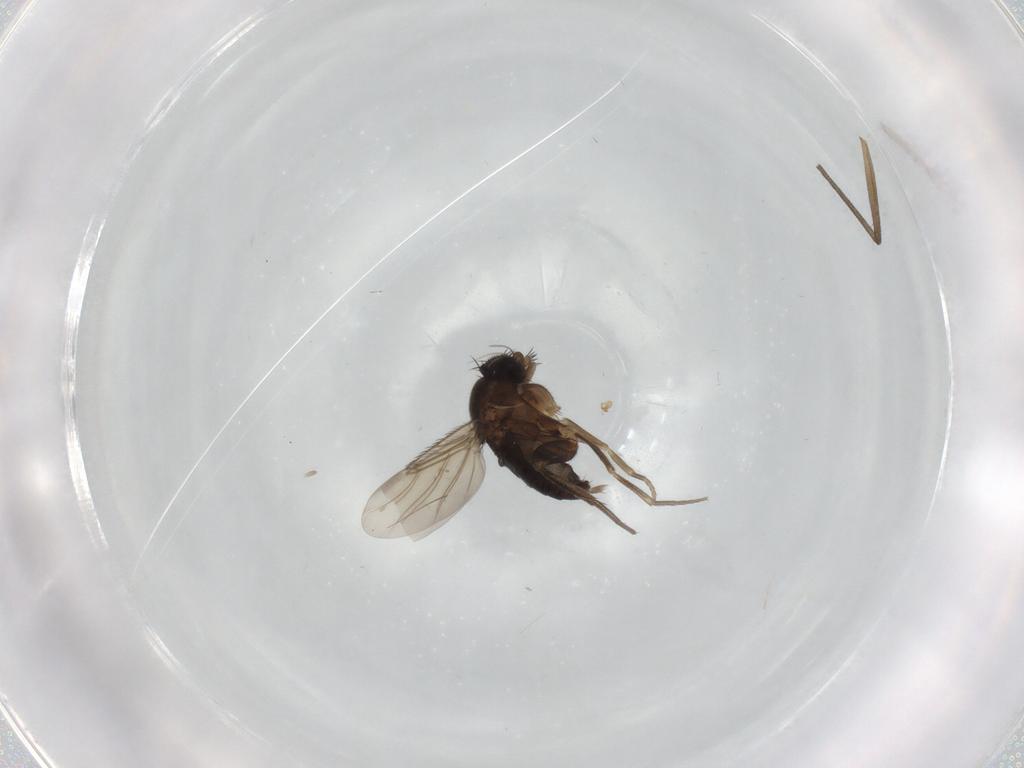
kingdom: Animalia
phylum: Arthropoda
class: Insecta
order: Diptera
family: Phoridae
